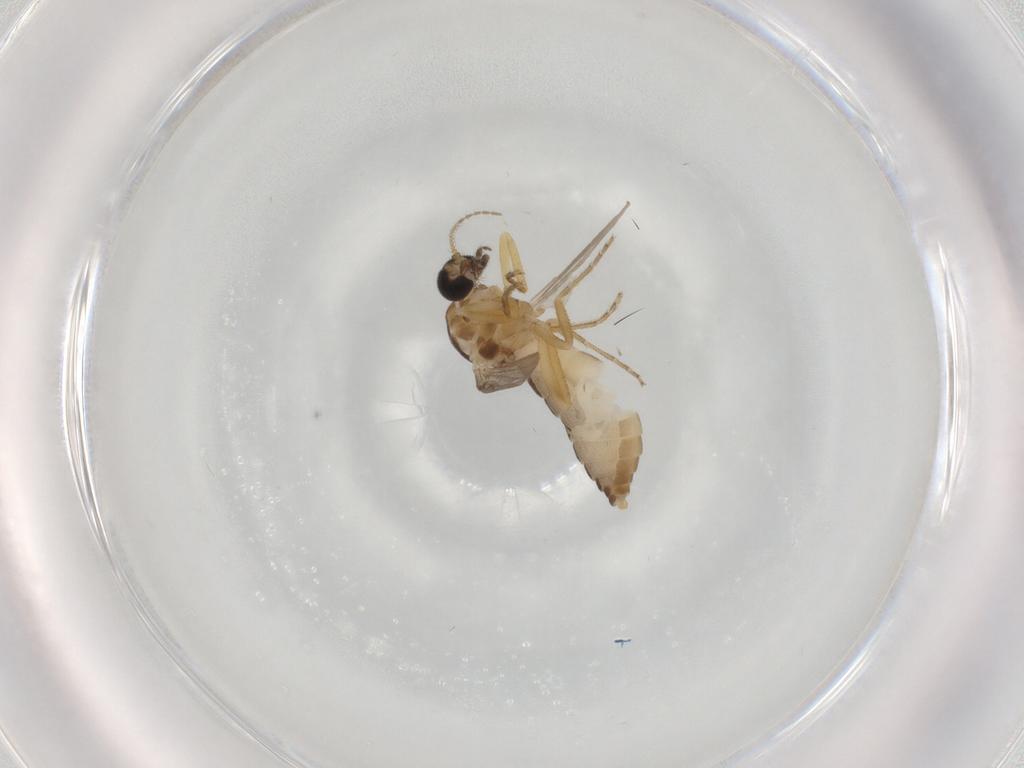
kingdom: Animalia
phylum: Arthropoda
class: Insecta
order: Diptera
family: Ceratopogonidae
